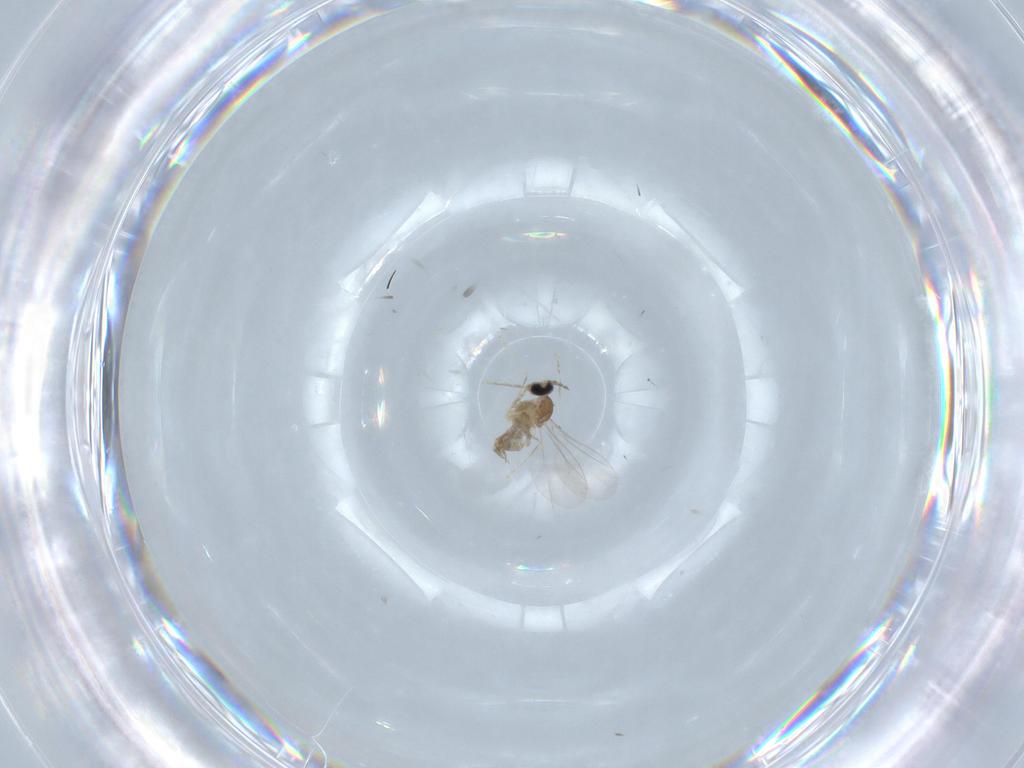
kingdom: Animalia
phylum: Arthropoda
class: Insecta
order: Diptera
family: Cecidomyiidae
